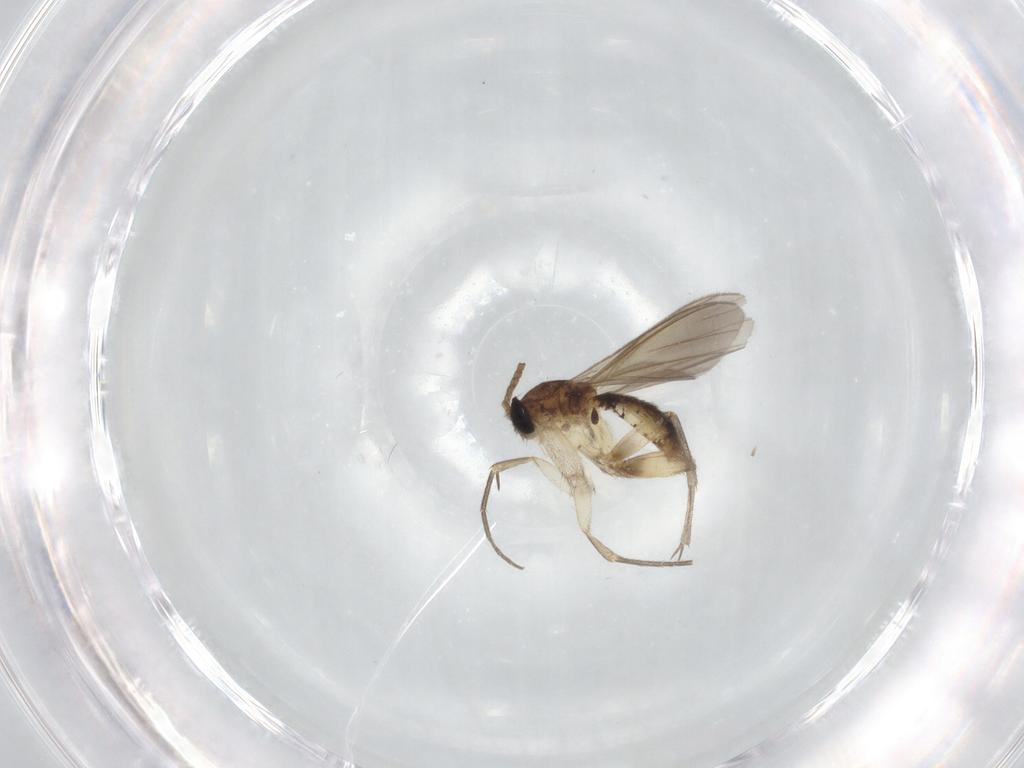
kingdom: Animalia
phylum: Arthropoda
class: Insecta
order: Diptera
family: Mycetophilidae
